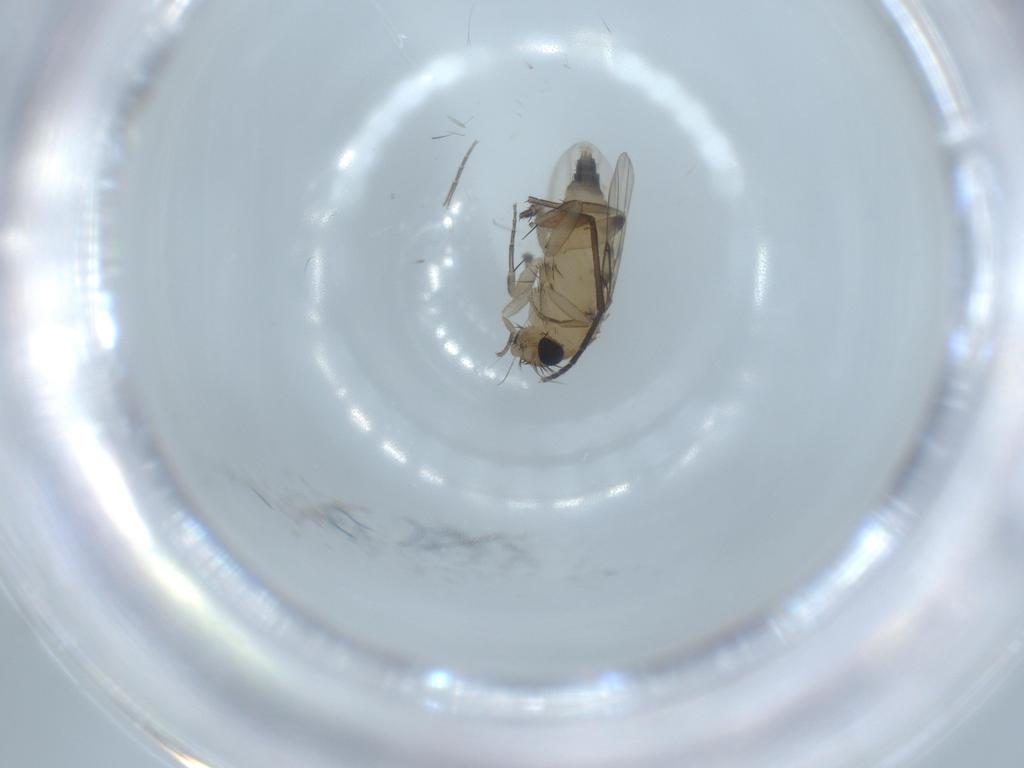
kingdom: Animalia
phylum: Arthropoda
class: Insecta
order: Diptera
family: Phoridae
